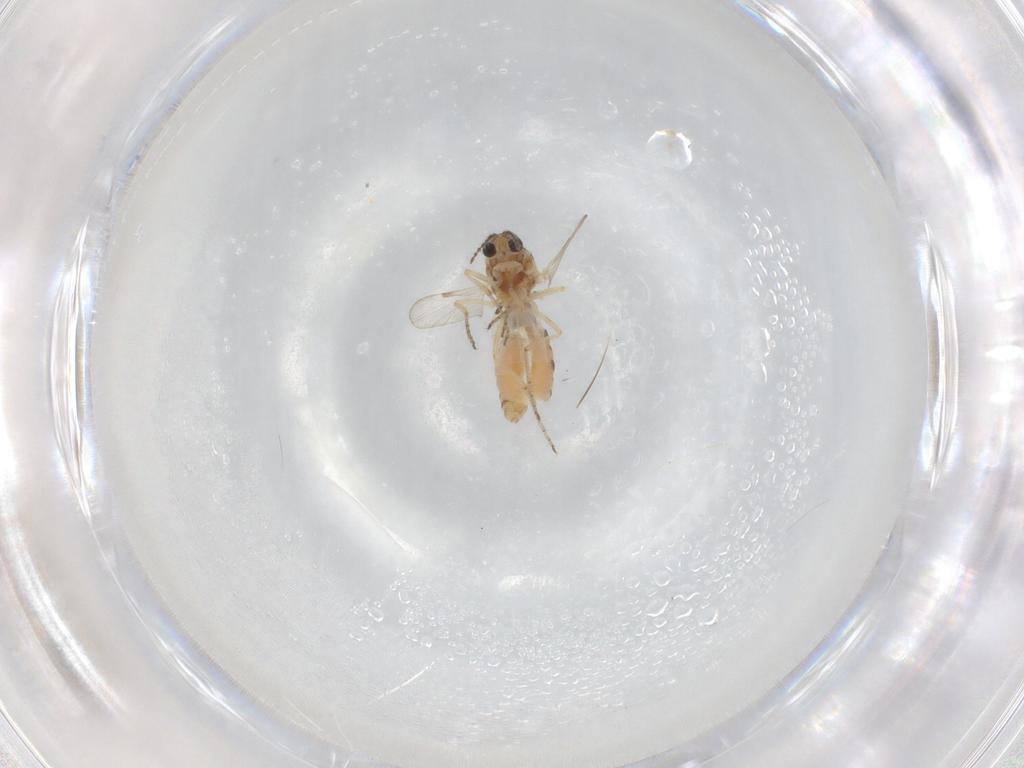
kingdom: Animalia
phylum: Arthropoda
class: Insecta
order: Diptera
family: Ceratopogonidae
